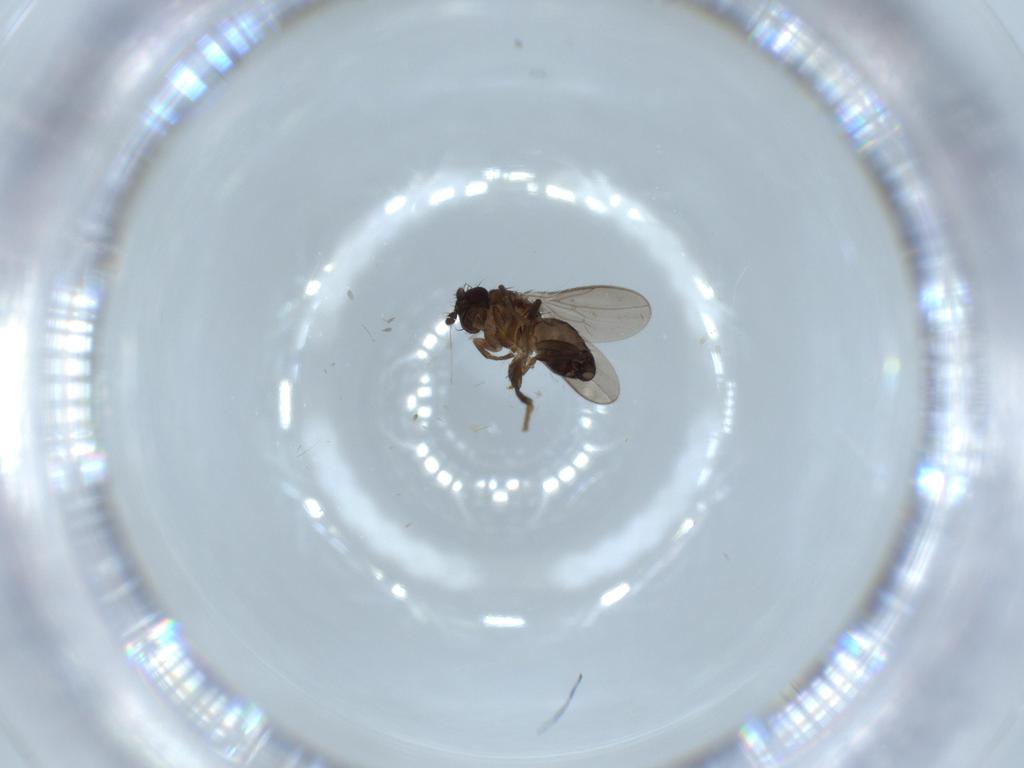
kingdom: Animalia
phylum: Arthropoda
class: Insecta
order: Diptera
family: Sphaeroceridae
